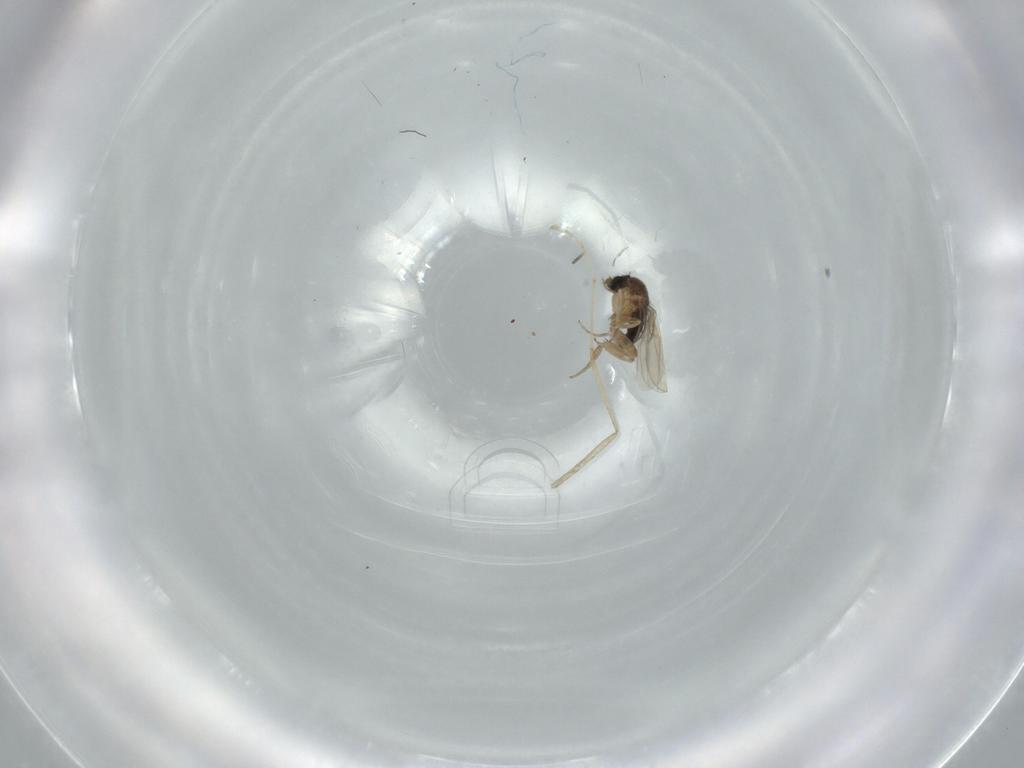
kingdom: Animalia
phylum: Arthropoda
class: Insecta
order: Diptera
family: Phoridae
